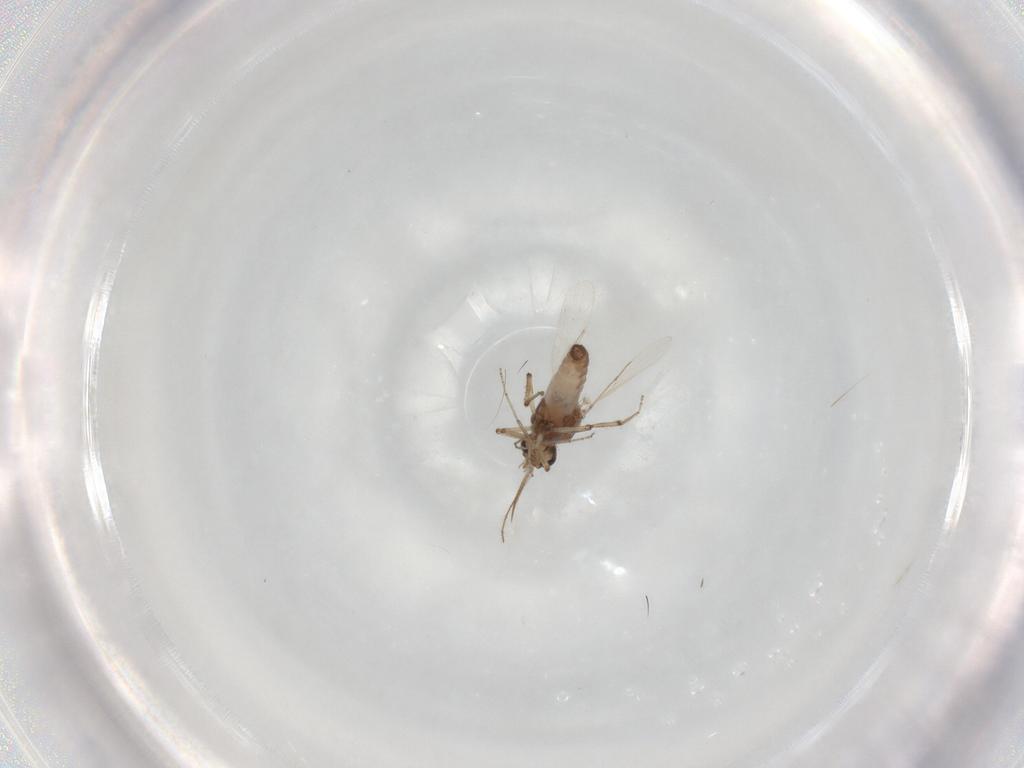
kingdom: Animalia
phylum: Arthropoda
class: Insecta
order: Diptera
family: Ceratopogonidae
